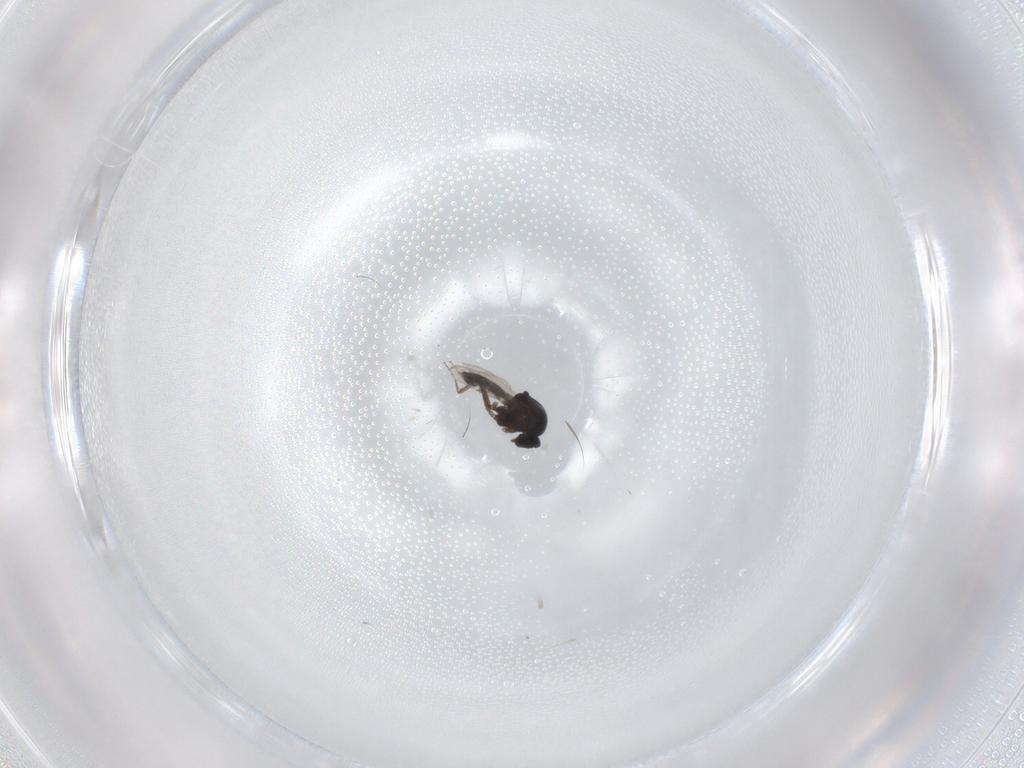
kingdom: Animalia
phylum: Arthropoda
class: Insecta
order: Diptera
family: Ceratopogonidae
